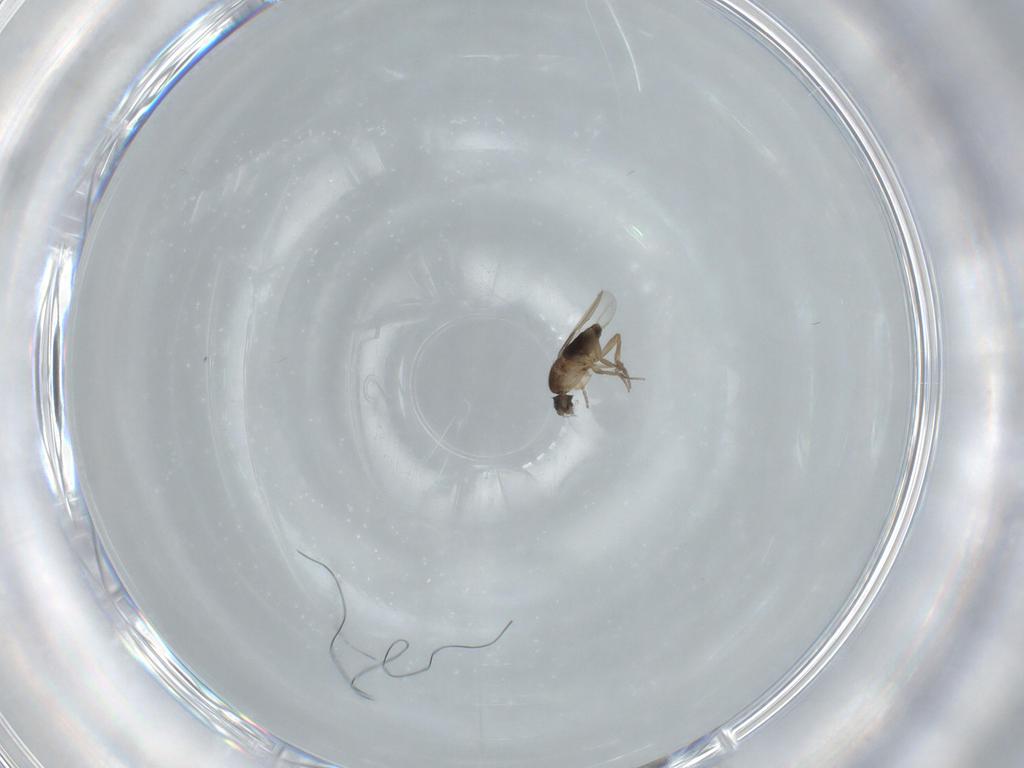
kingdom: Animalia
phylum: Arthropoda
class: Insecta
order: Diptera
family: Phoridae
